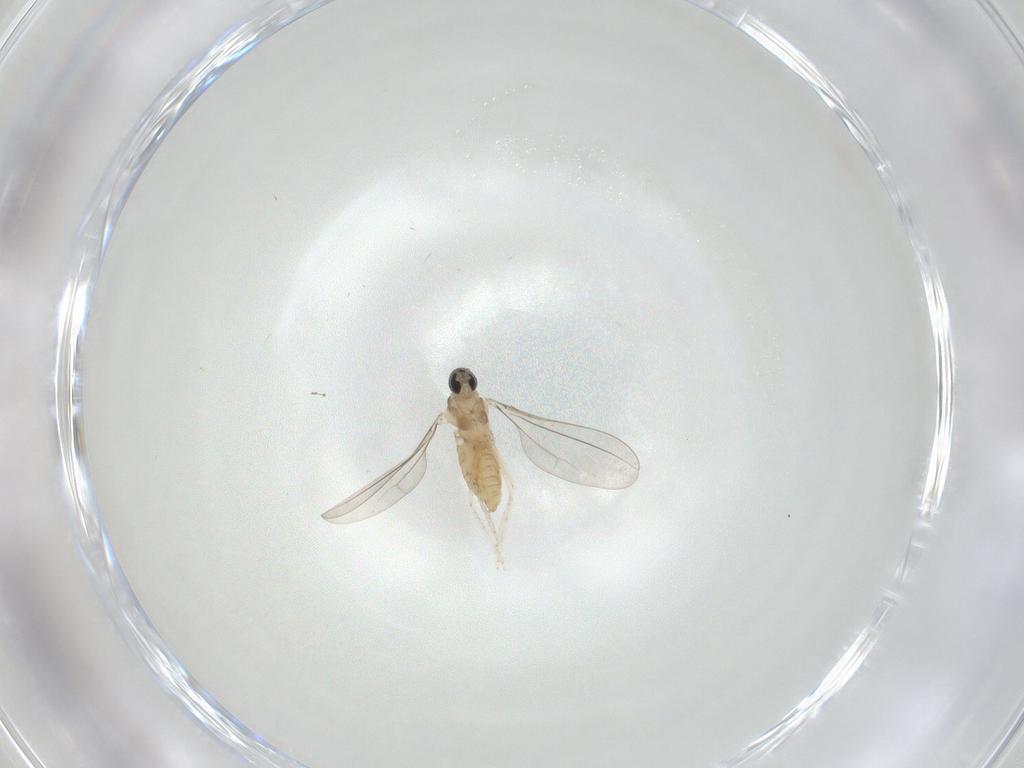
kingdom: Animalia
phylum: Arthropoda
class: Insecta
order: Diptera
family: Cecidomyiidae
